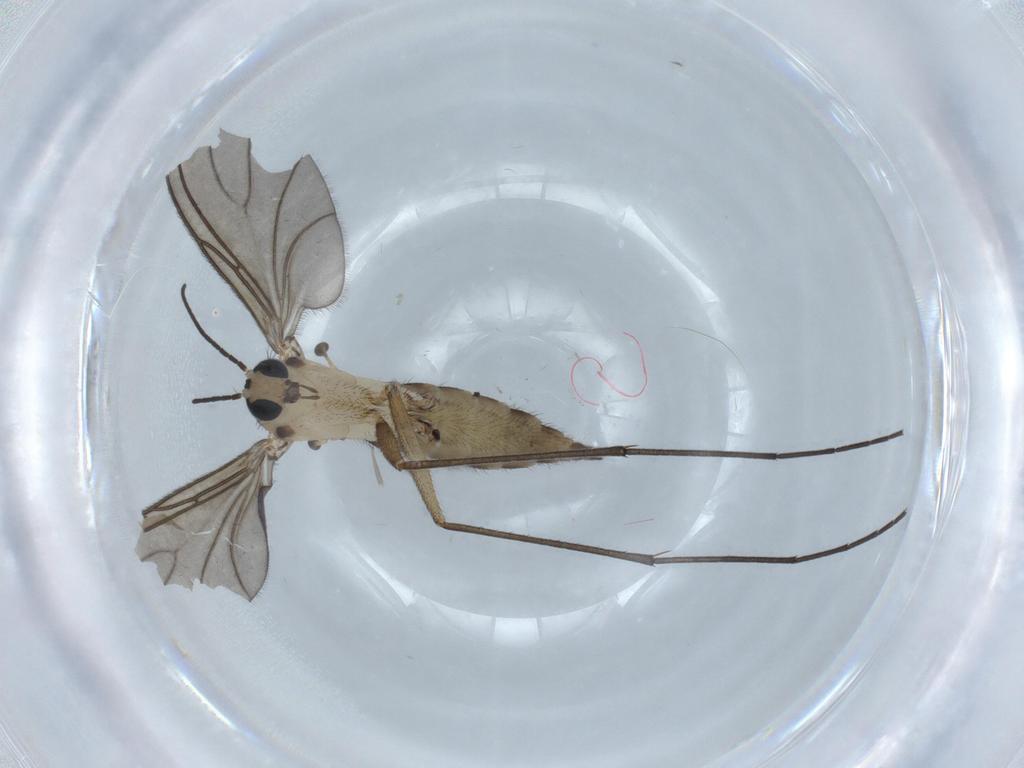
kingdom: Animalia
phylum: Arthropoda
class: Insecta
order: Diptera
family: Sciaridae
